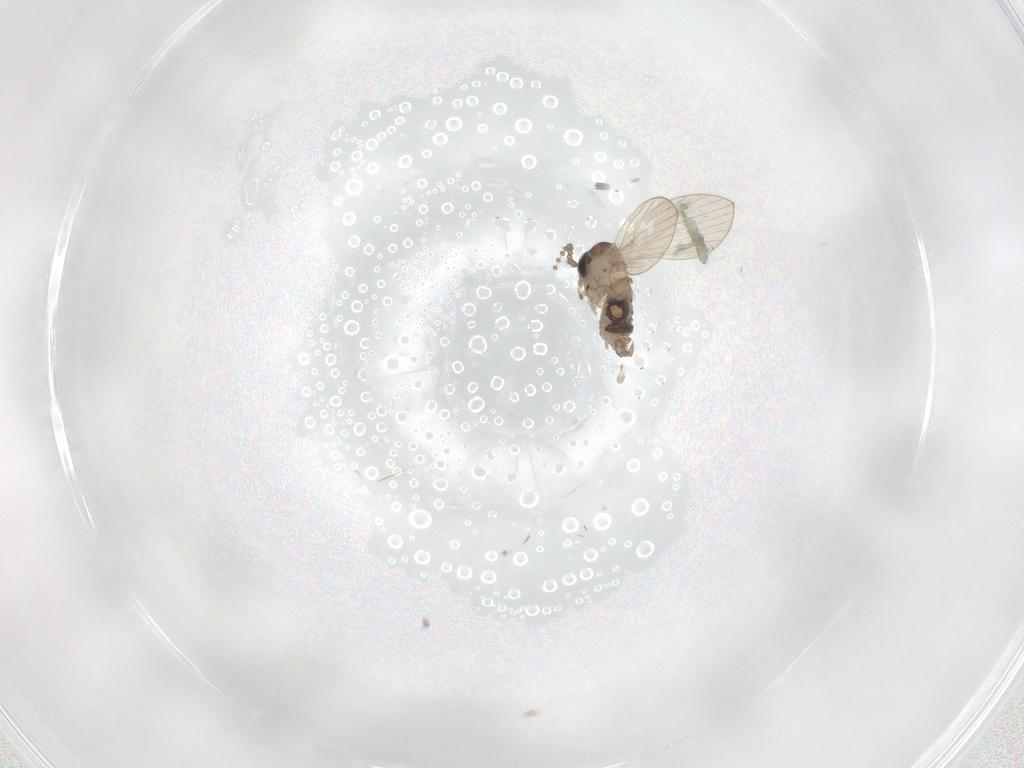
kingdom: Animalia
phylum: Arthropoda
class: Insecta
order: Diptera
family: Psychodidae
